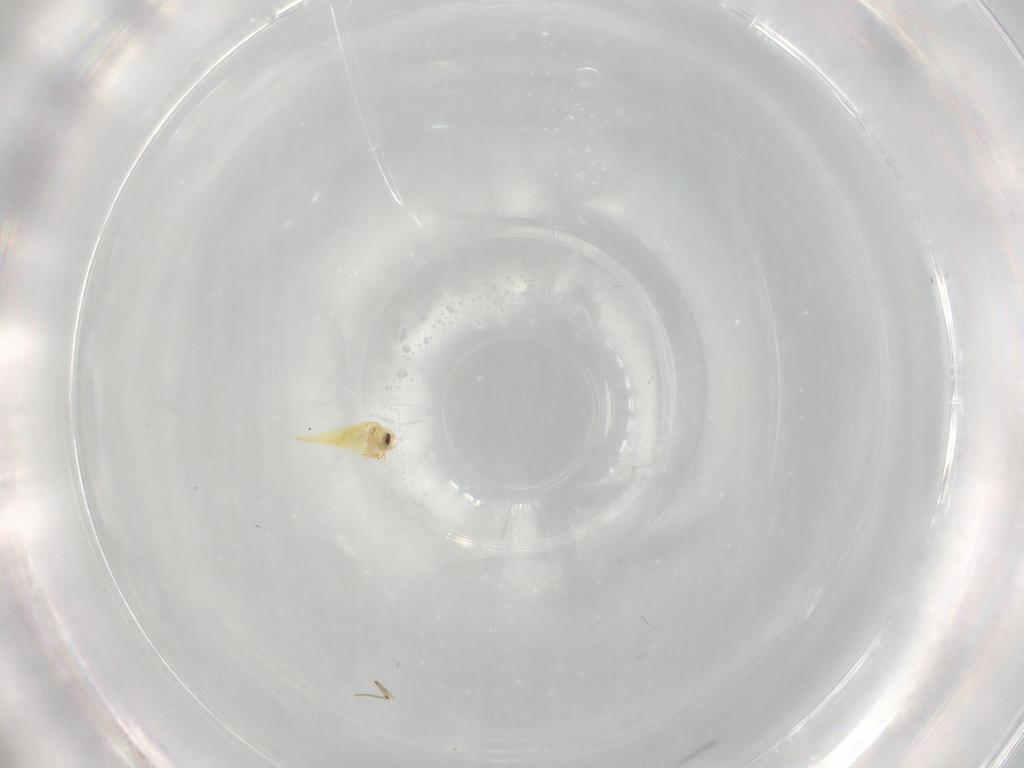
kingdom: Animalia
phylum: Arthropoda
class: Insecta
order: Hemiptera
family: Aleyrodidae
